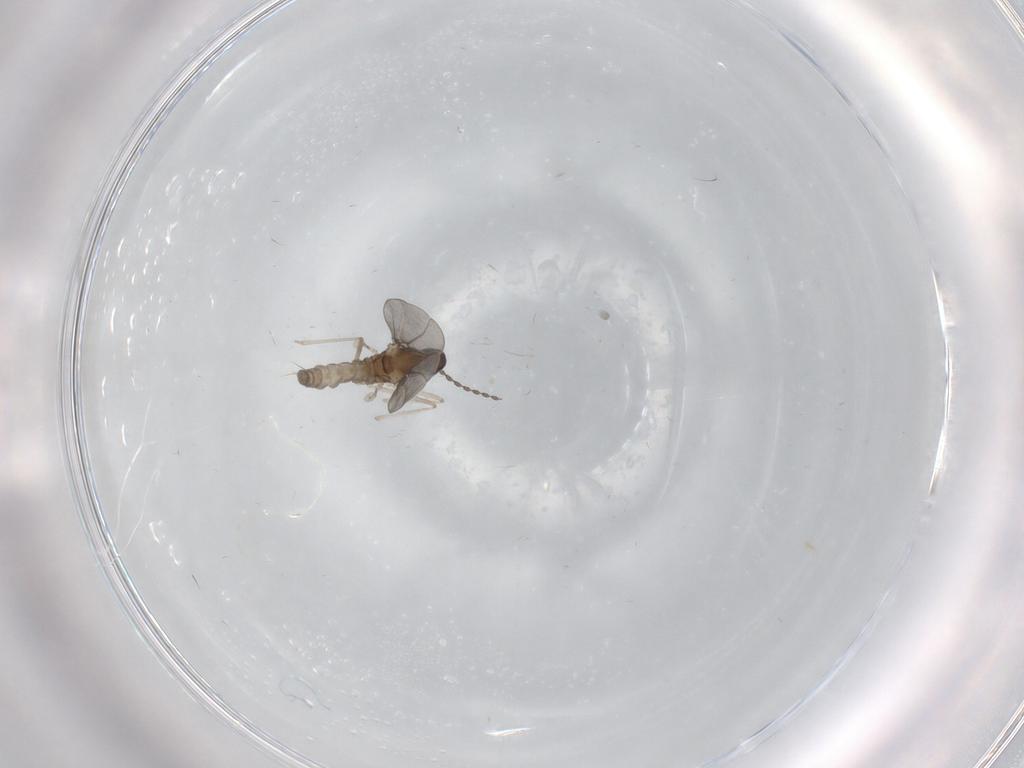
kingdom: Animalia
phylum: Arthropoda
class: Insecta
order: Diptera
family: Cecidomyiidae
